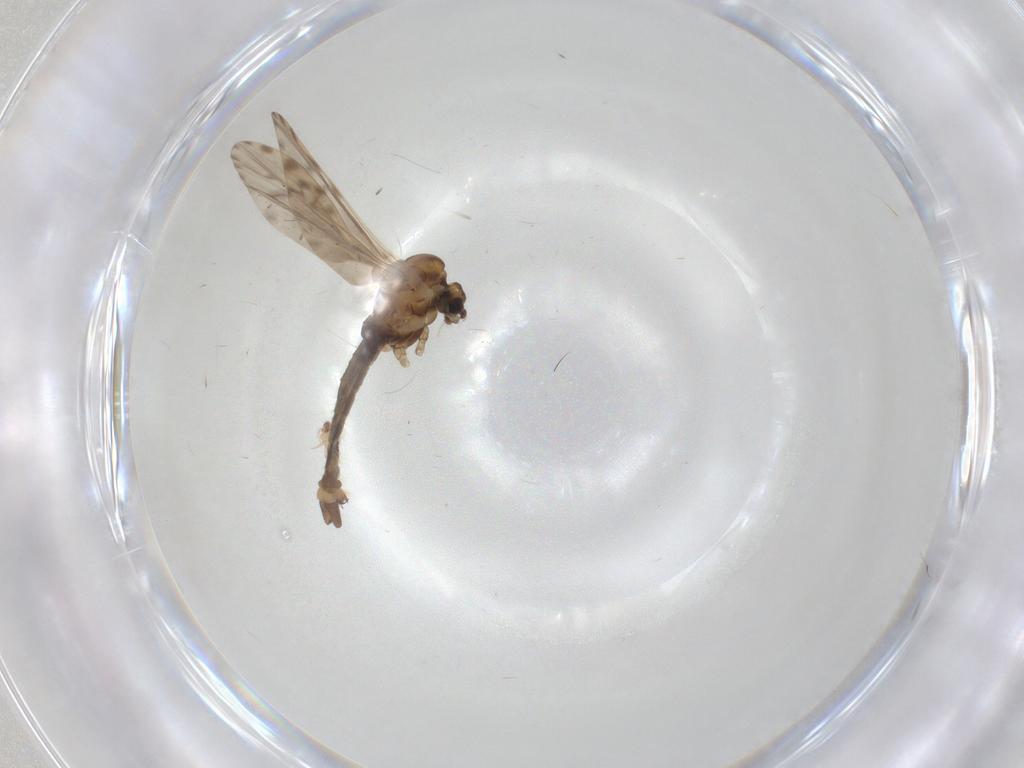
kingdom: Animalia
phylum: Arthropoda
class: Insecta
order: Diptera
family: Limoniidae
